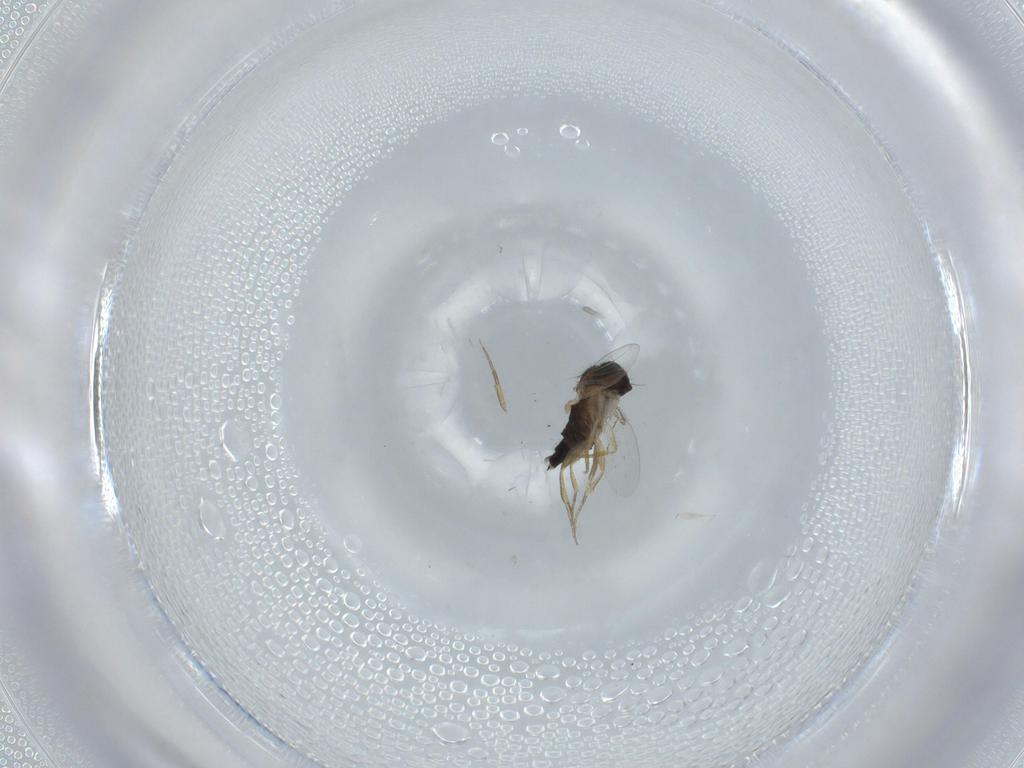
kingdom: Animalia
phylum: Arthropoda
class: Insecta
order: Diptera
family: Phoridae
